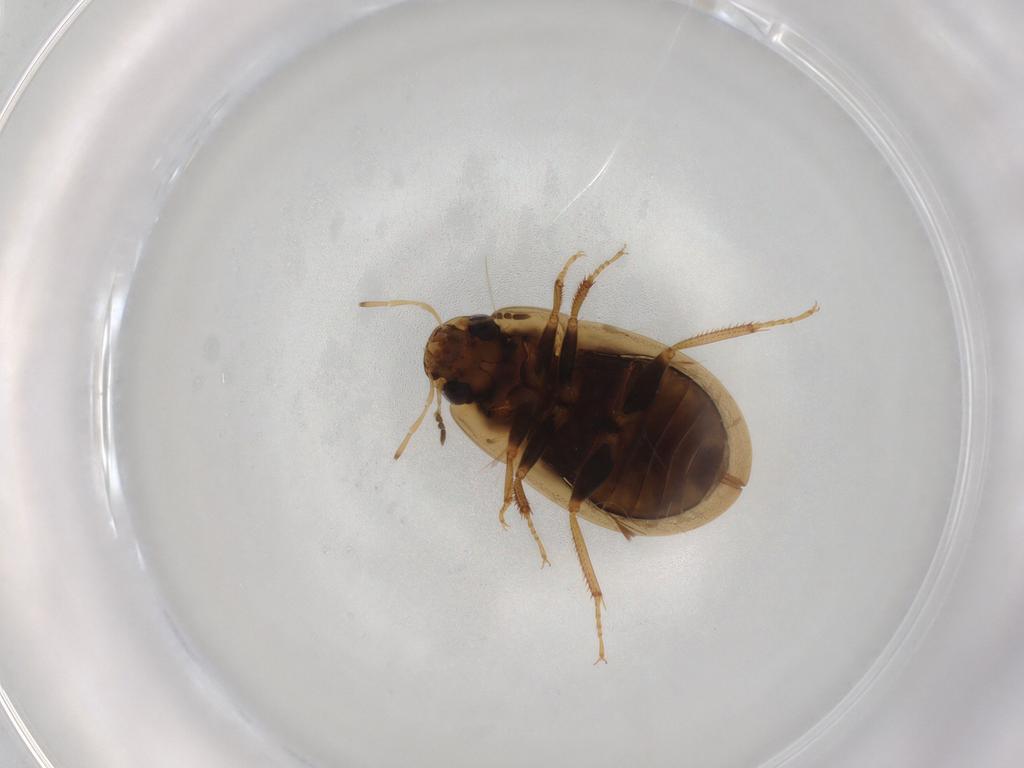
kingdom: Animalia
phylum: Arthropoda
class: Insecta
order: Coleoptera
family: Hydrophilidae
